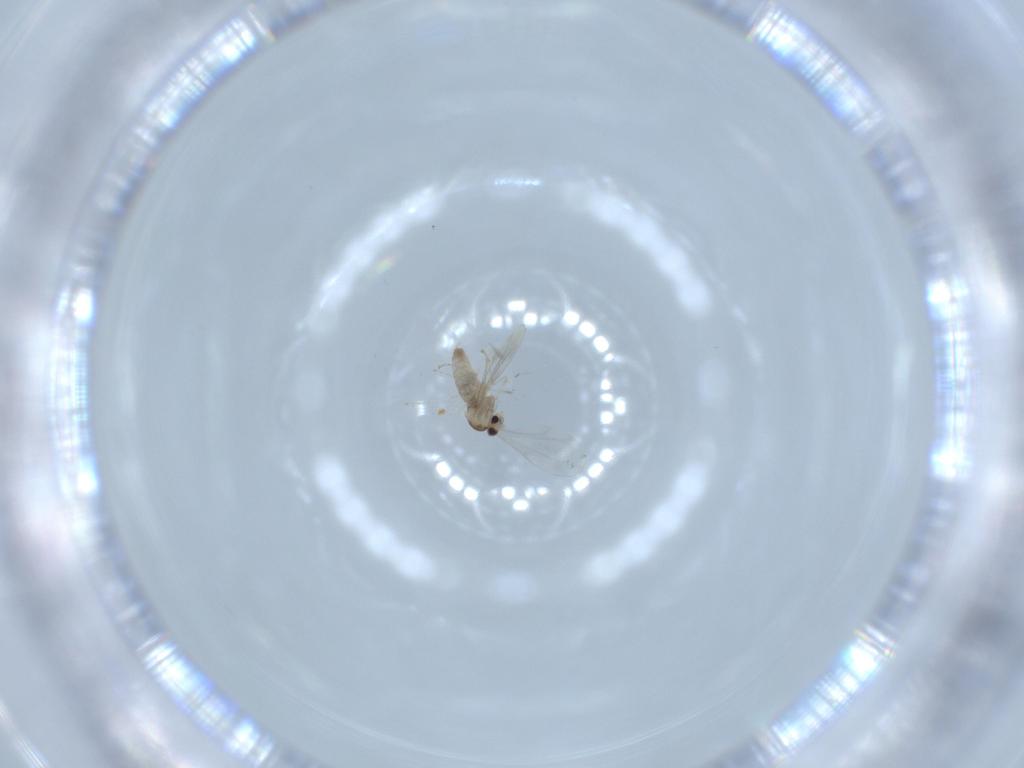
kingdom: Animalia
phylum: Arthropoda
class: Insecta
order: Diptera
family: Cecidomyiidae
